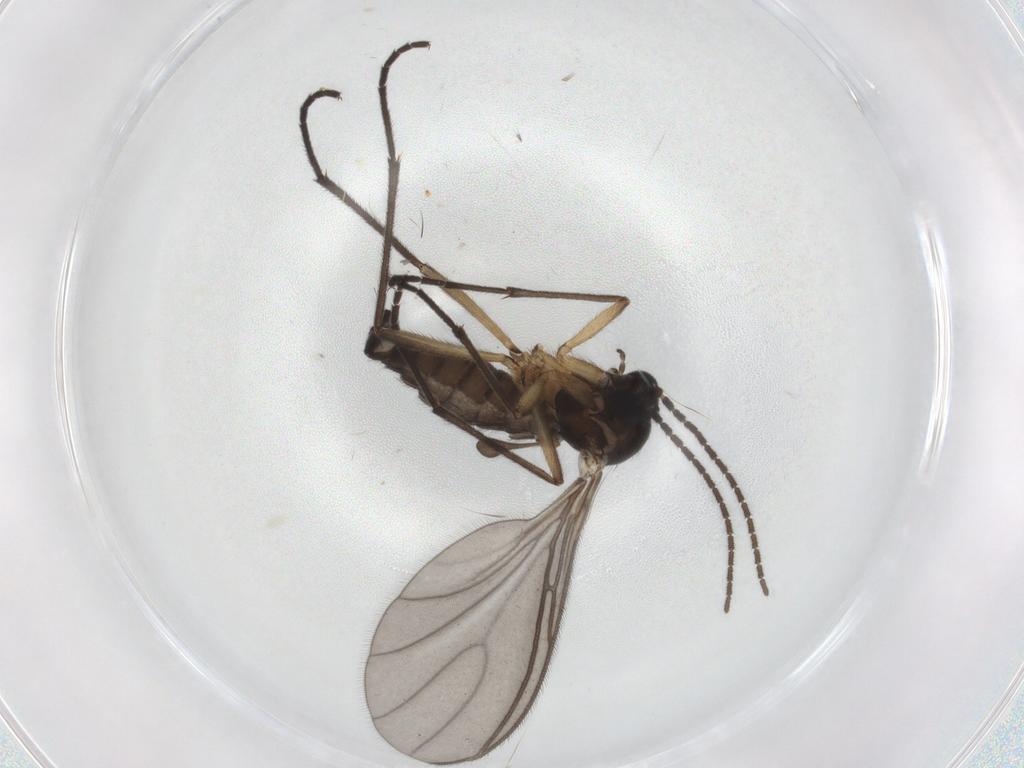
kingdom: Animalia
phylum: Arthropoda
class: Insecta
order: Diptera
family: Sciaridae
